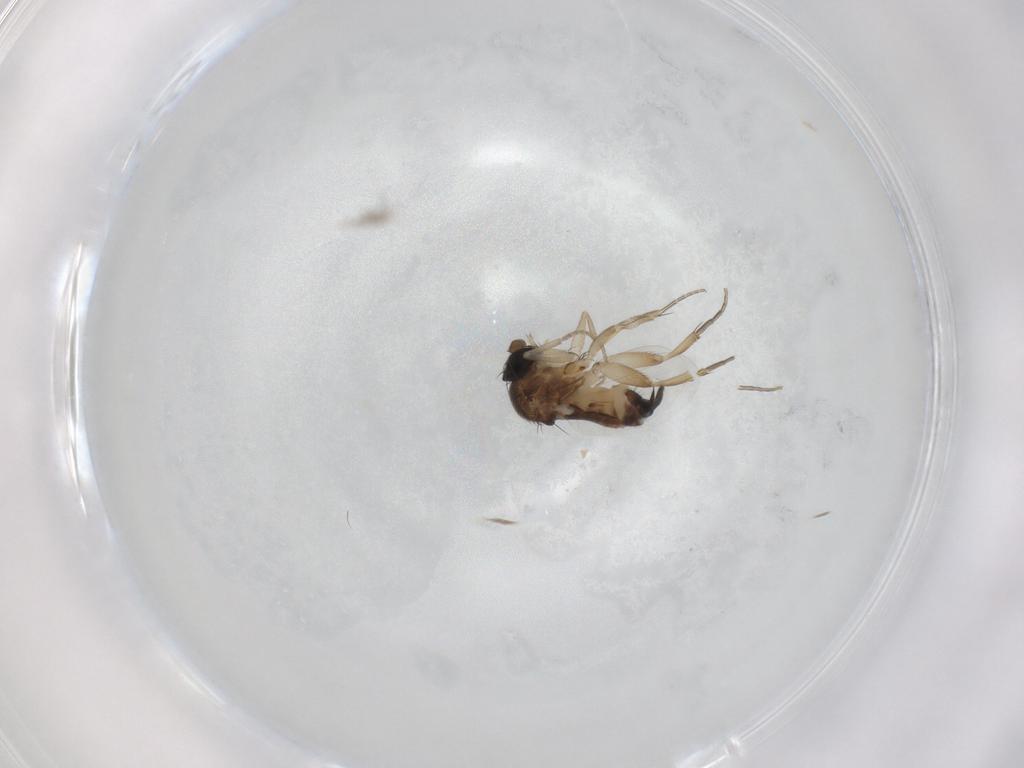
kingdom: Animalia
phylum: Arthropoda
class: Insecta
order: Diptera
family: Phoridae
